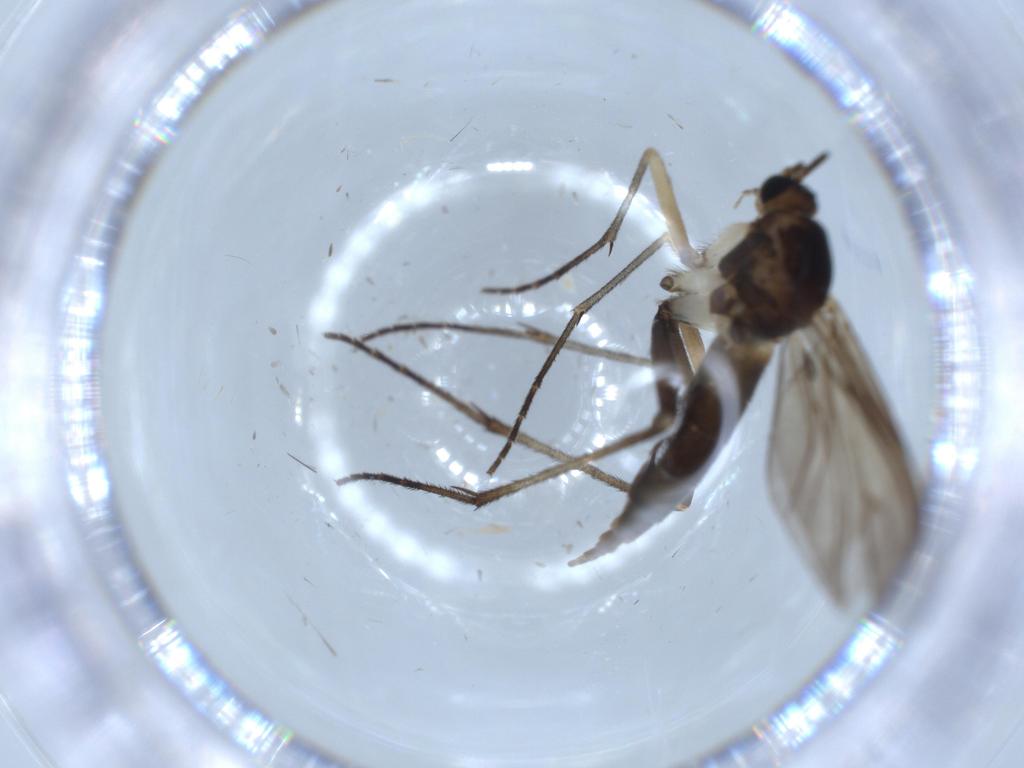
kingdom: Animalia
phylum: Arthropoda
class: Insecta
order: Diptera
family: Sciaridae
